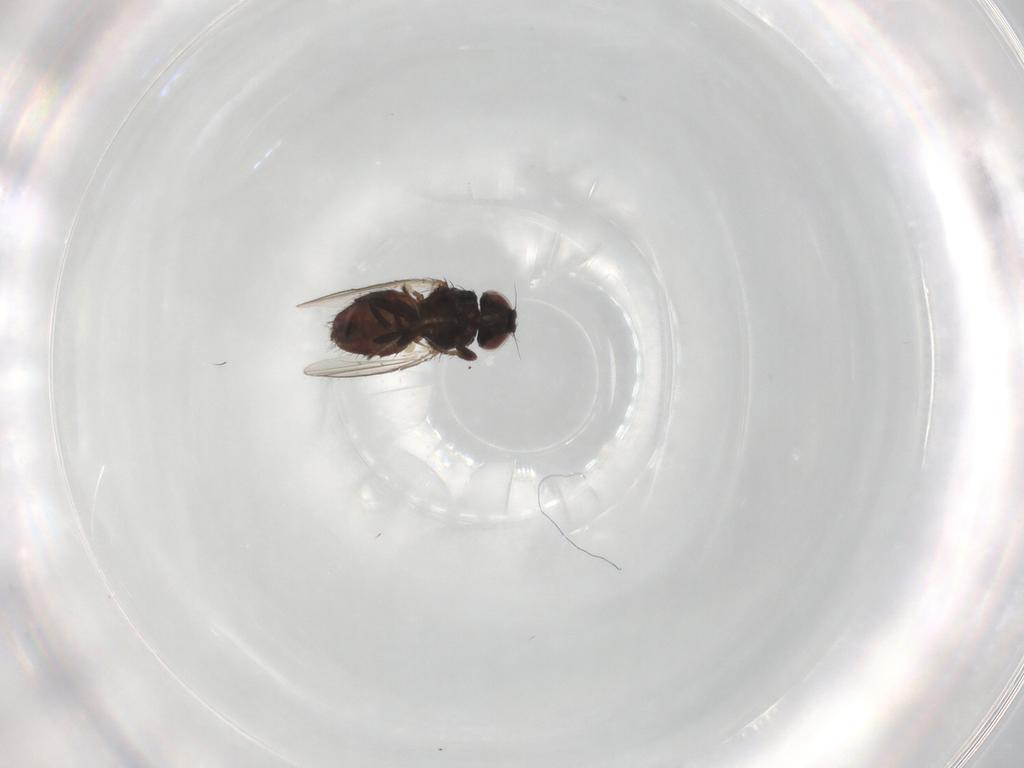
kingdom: Animalia
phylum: Arthropoda
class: Insecta
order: Diptera
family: Milichiidae
